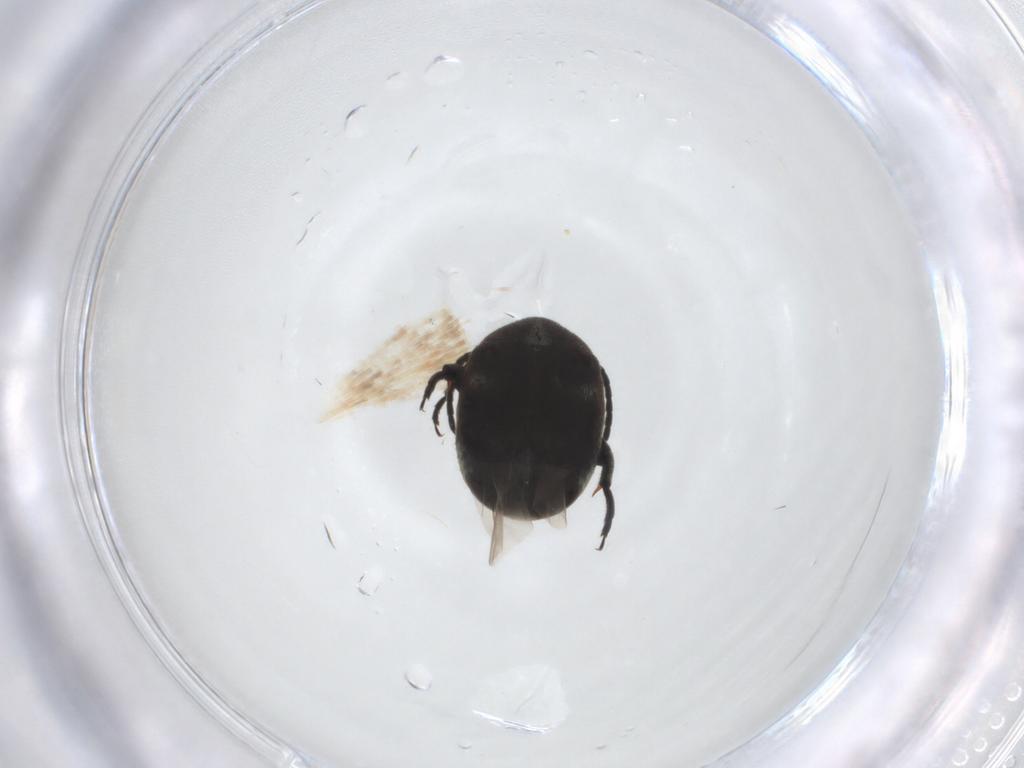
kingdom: Animalia
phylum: Arthropoda
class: Insecta
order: Coleoptera
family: Chrysomelidae
